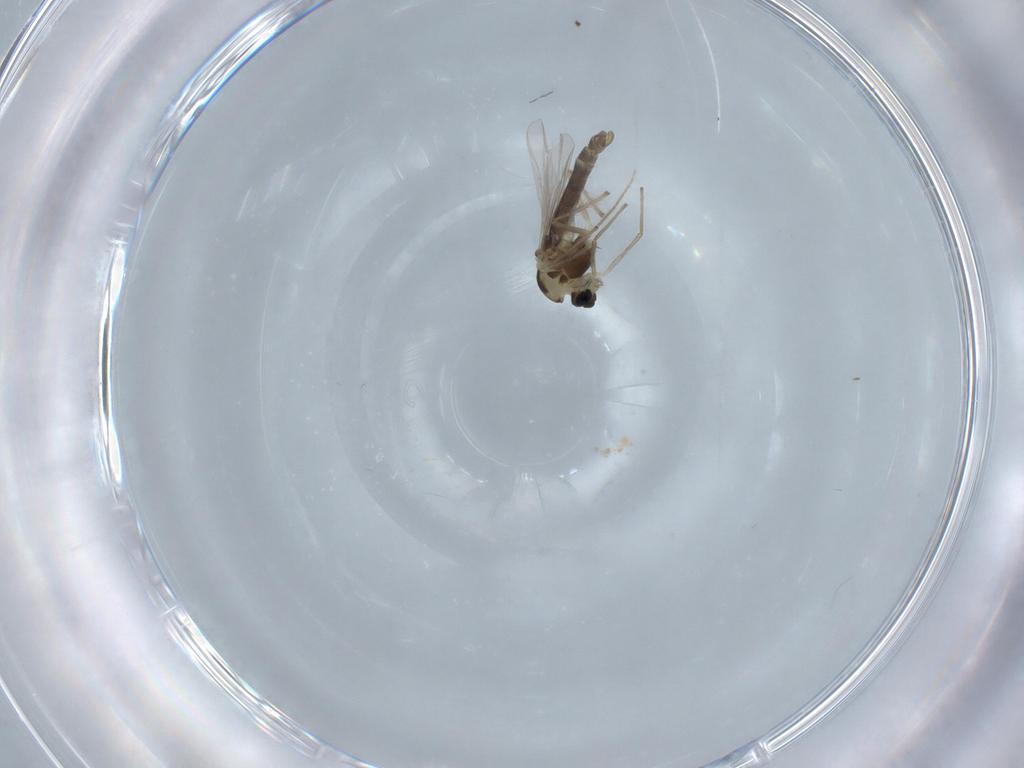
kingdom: Animalia
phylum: Arthropoda
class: Insecta
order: Diptera
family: Chironomidae
